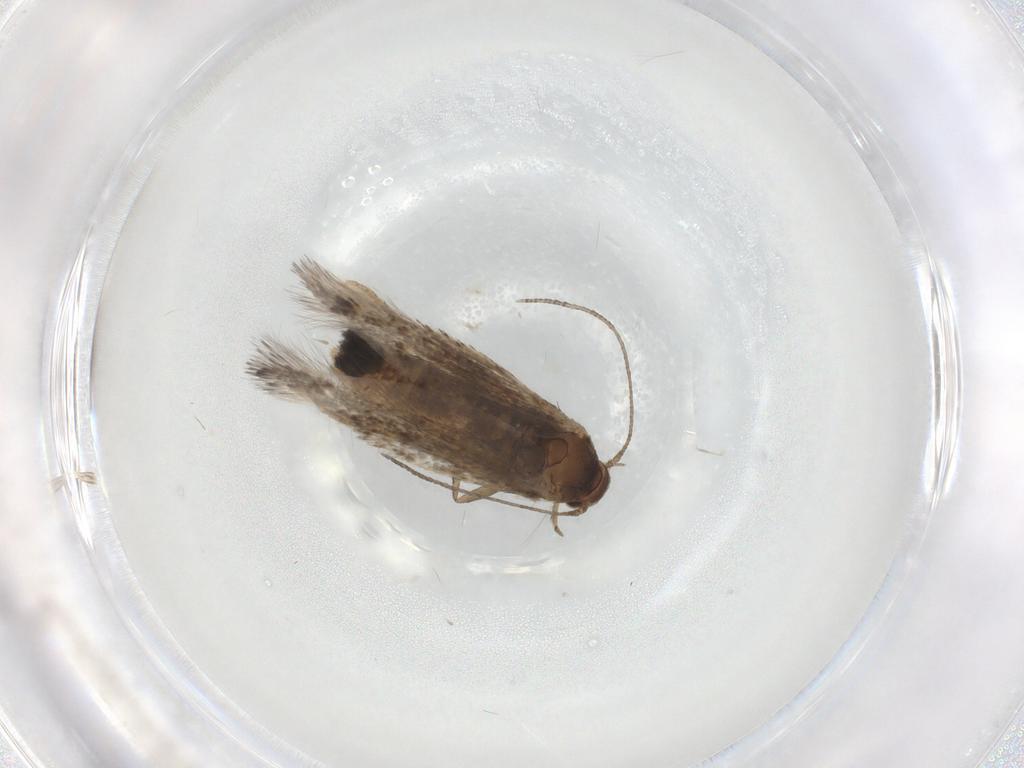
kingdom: Animalia
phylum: Arthropoda
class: Insecta
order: Lepidoptera
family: Elachistidae
